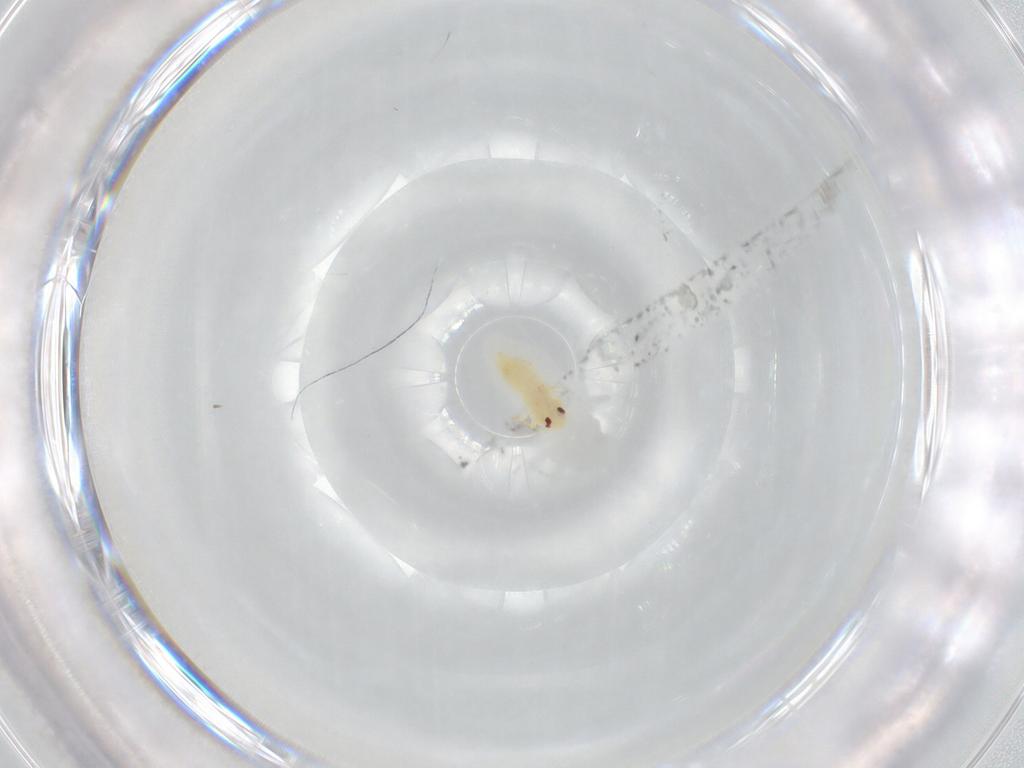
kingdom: Animalia
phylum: Arthropoda
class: Insecta
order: Hemiptera
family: Aleyrodidae
